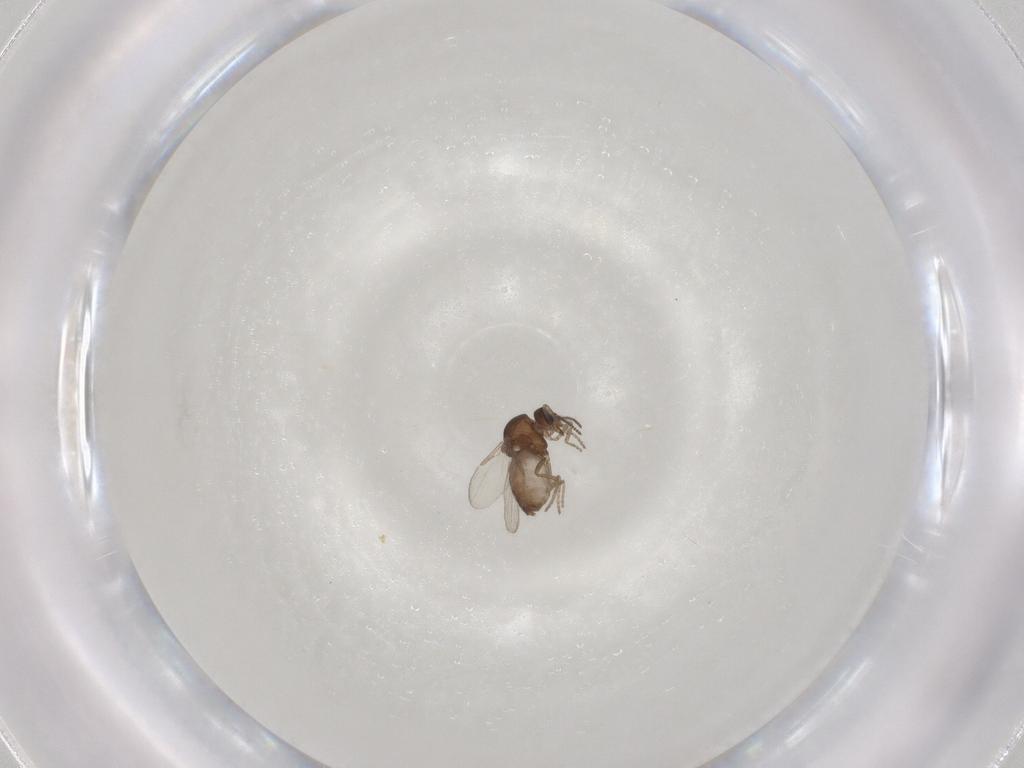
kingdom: Animalia
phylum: Arthropoda
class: Insecta
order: Diptera
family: Ceratopogonidae
